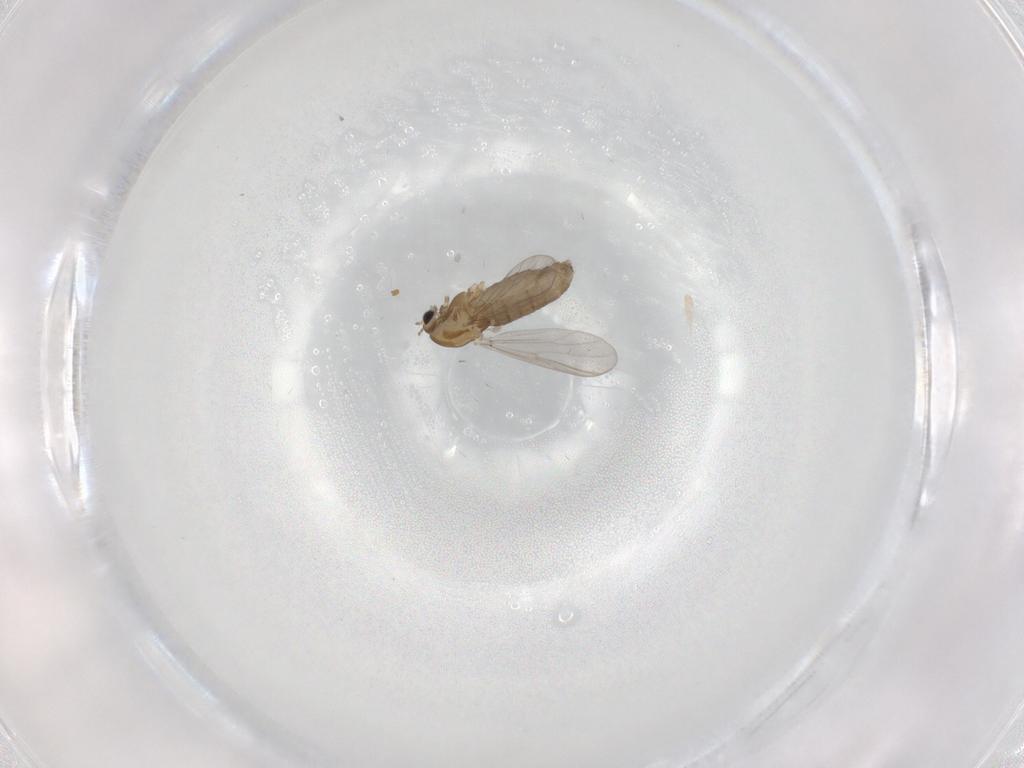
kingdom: Animalia
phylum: Arthropoda
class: Insecta
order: Diptera
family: Chironomidae
